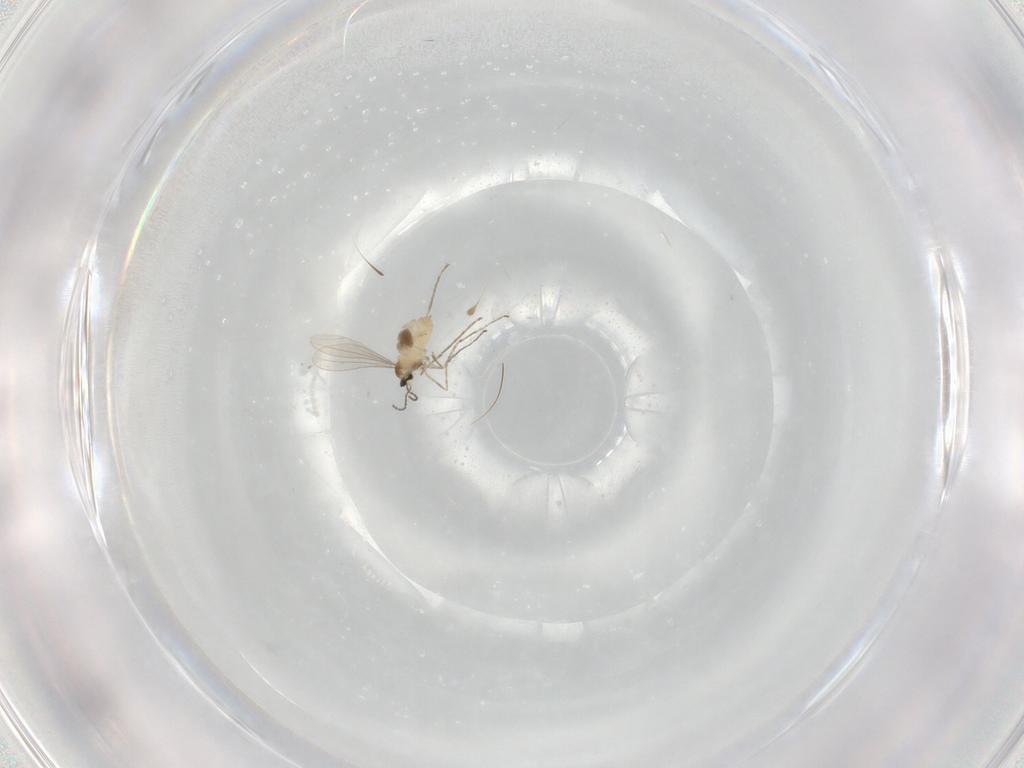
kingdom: Animalia
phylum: Arthropoda
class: Insecta
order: Diptera
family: Cecidomyiidae
